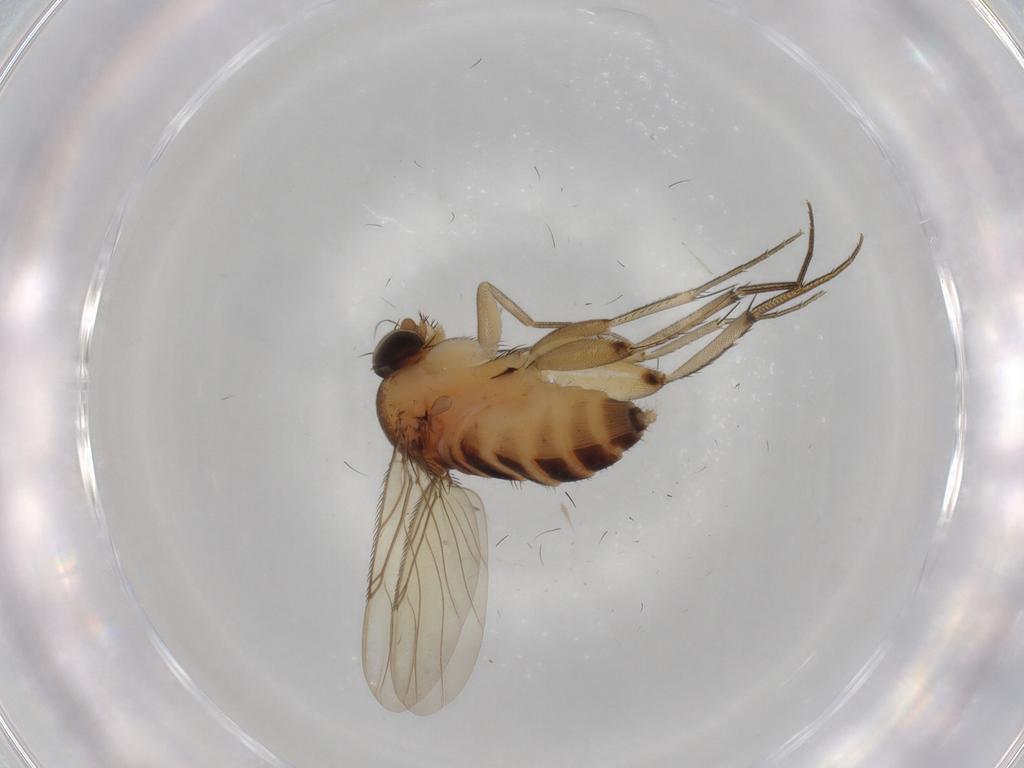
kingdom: Animalia
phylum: Arthropoda
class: Insecta
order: Diptera
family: Phoridae
